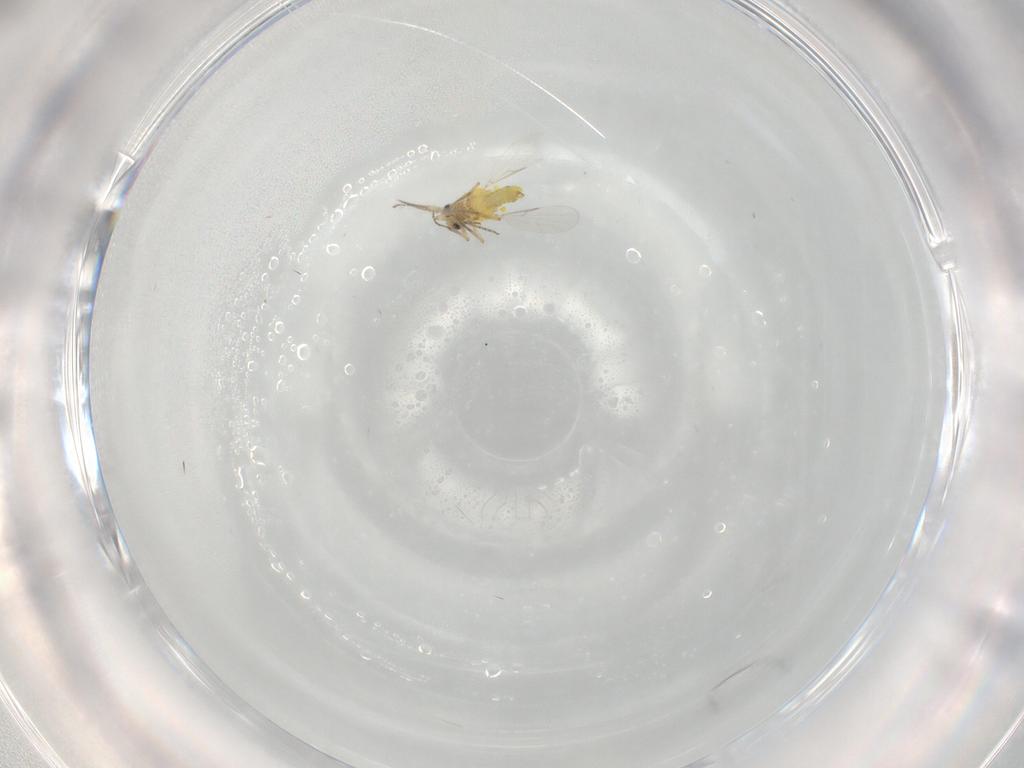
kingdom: Animalia
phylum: Arthropoda
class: Insecta
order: Diptera
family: Ceratopogonidae
